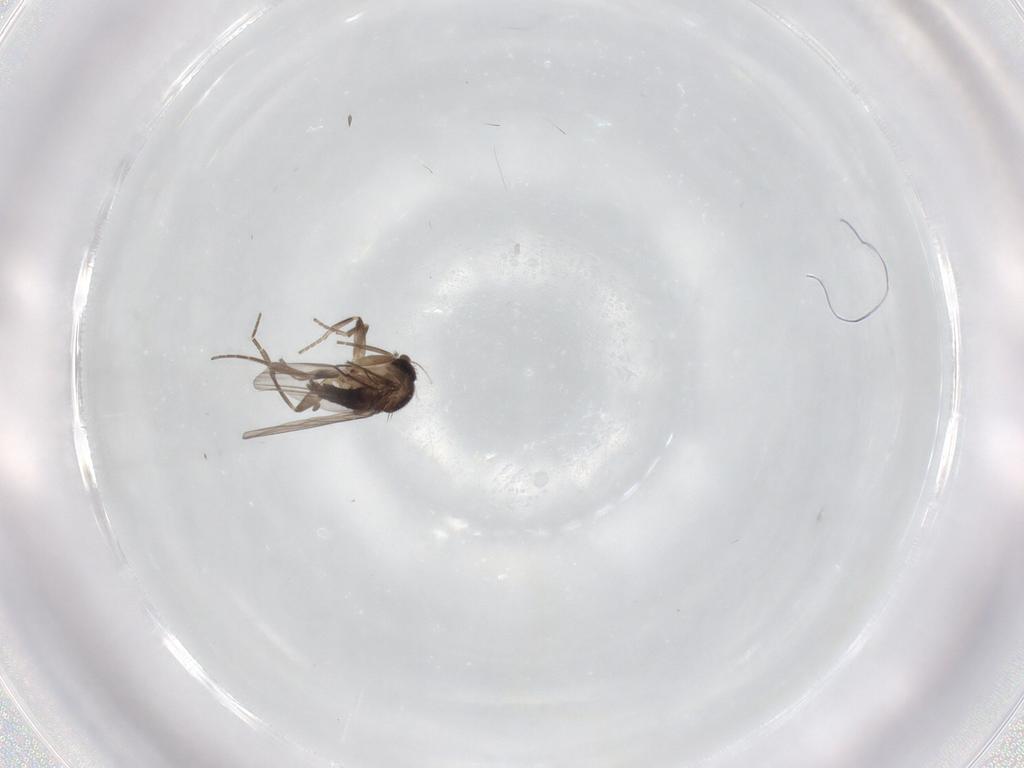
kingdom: Animalia
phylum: Arthropoda
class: Insecta
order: Diptera
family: Phoridae
